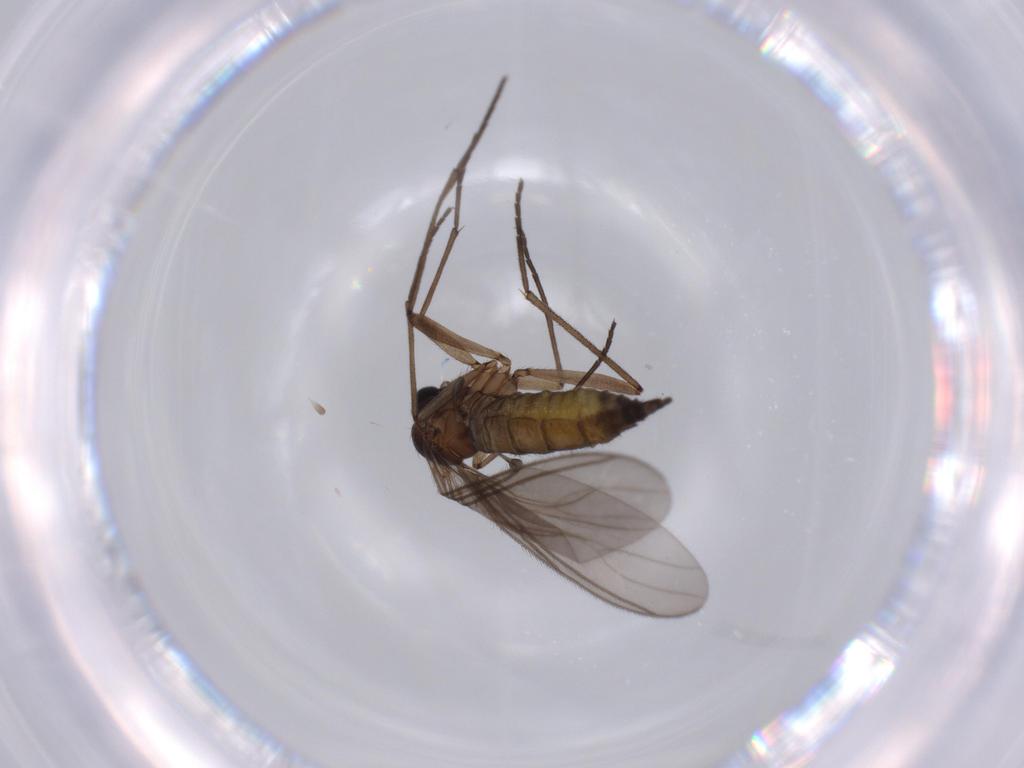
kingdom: Animalia
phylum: Arthropoda
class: Insecta
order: Diptera
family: Sciaridae
